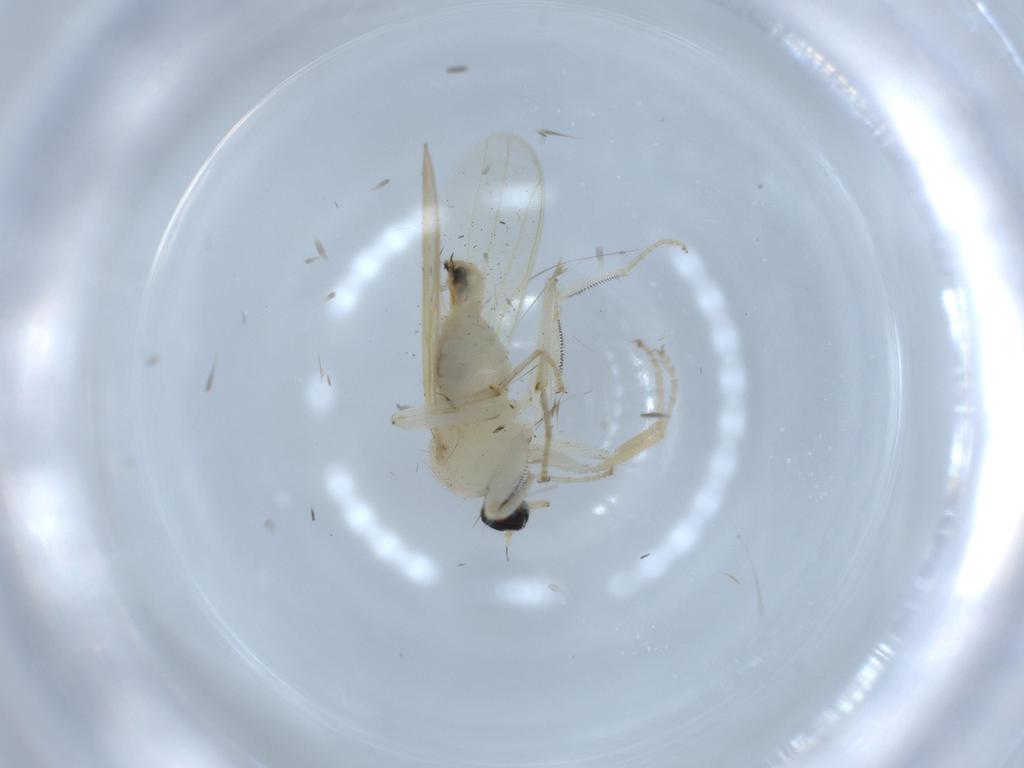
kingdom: Animalia
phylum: Arthropoda
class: Insecta
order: Diptera
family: Hybotidae
